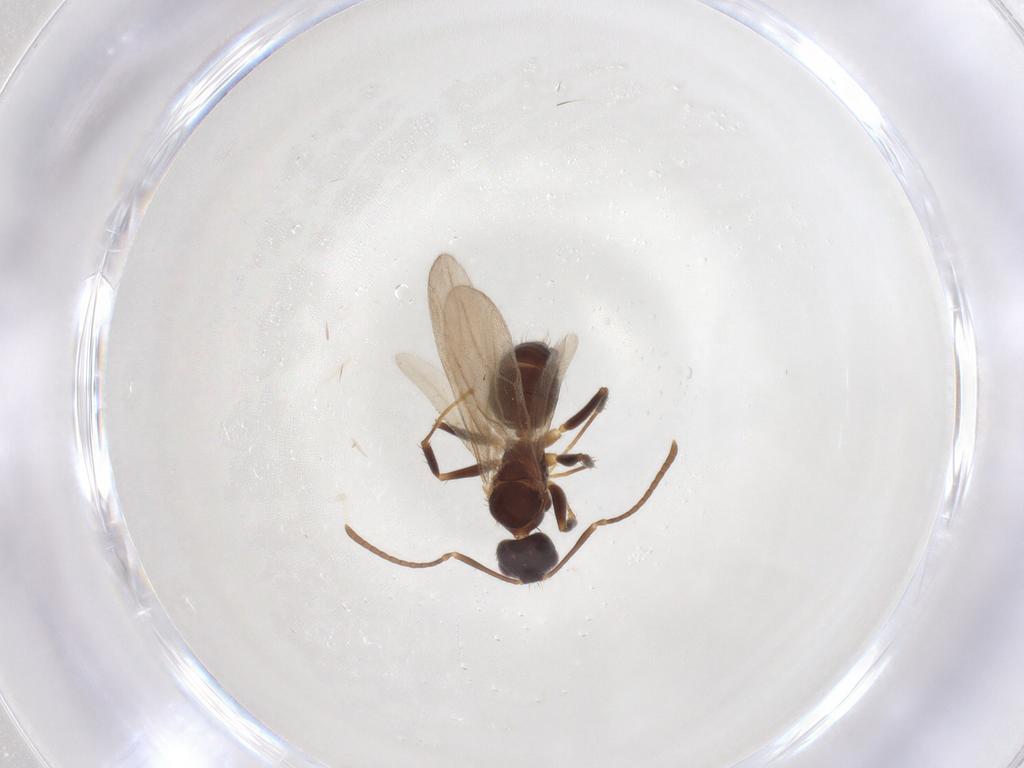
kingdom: Animalia
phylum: Arthropoda
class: Insecta
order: Hymenoptera
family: Formicidae
